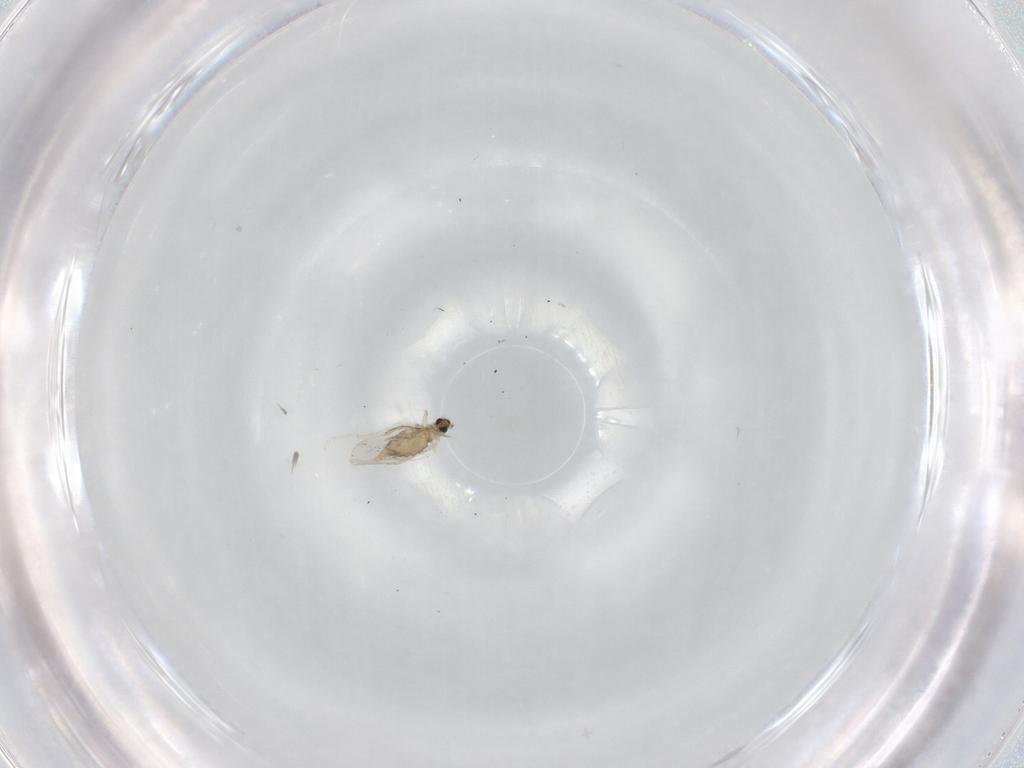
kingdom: Animalia
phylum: Arthropoda
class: Insecta
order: Diptera
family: Cecidomyiidae
